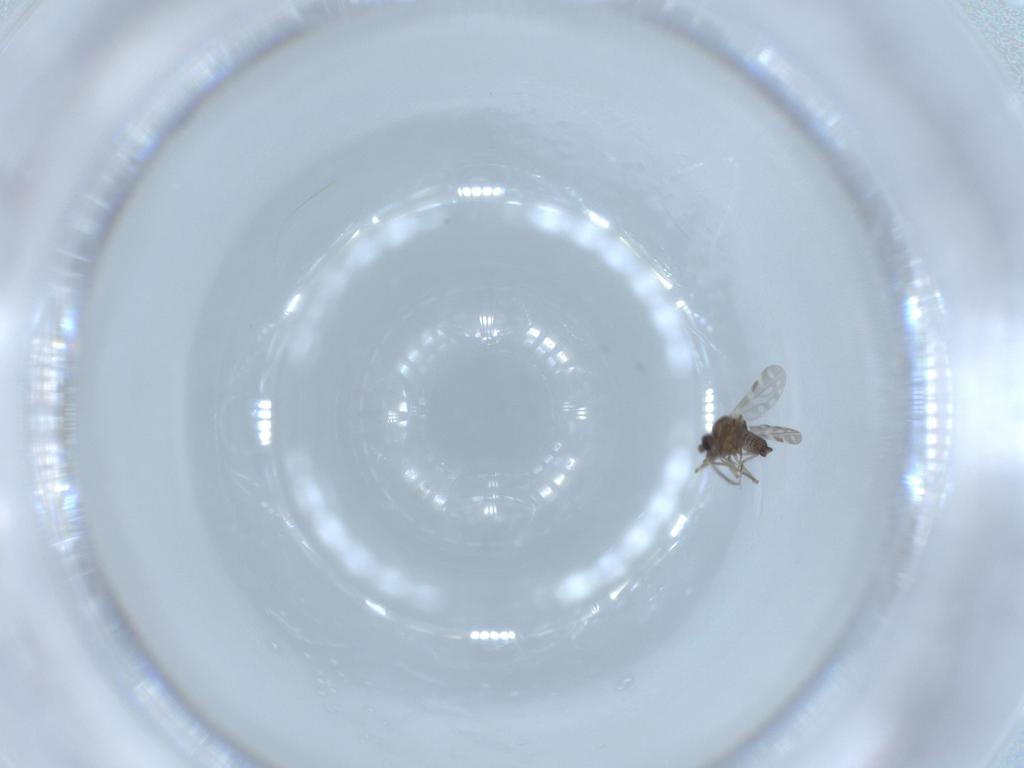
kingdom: Animalia
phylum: Arthropoda
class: Insecta
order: Diptera
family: Ceratopogonidae
